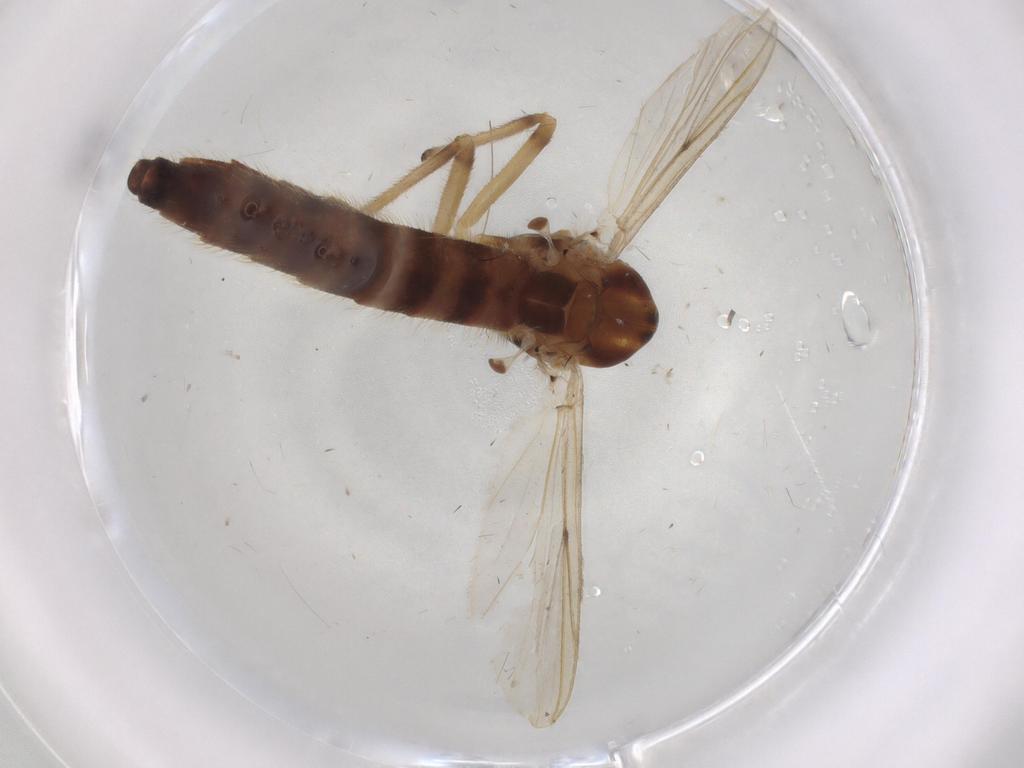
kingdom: Animalia
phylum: Arthropoda
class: Insecta
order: Diptera
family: Chironomidae
